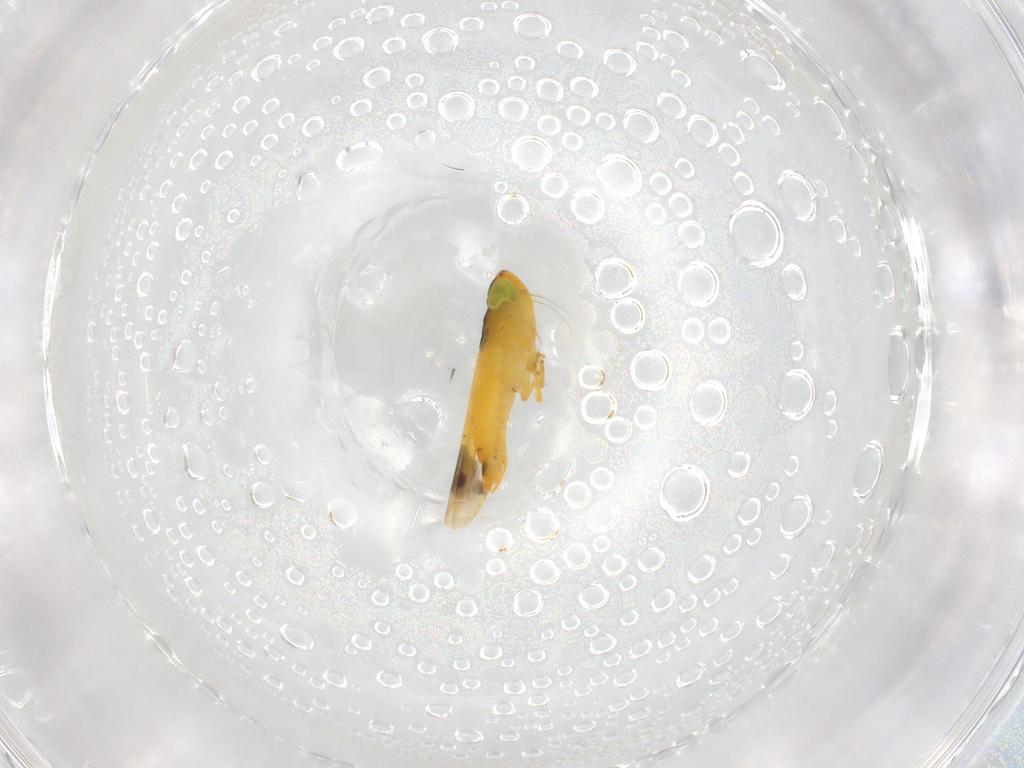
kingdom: Animalia
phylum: Arthropoda
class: Insecta
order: Hemiptera
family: Cicadellidae
